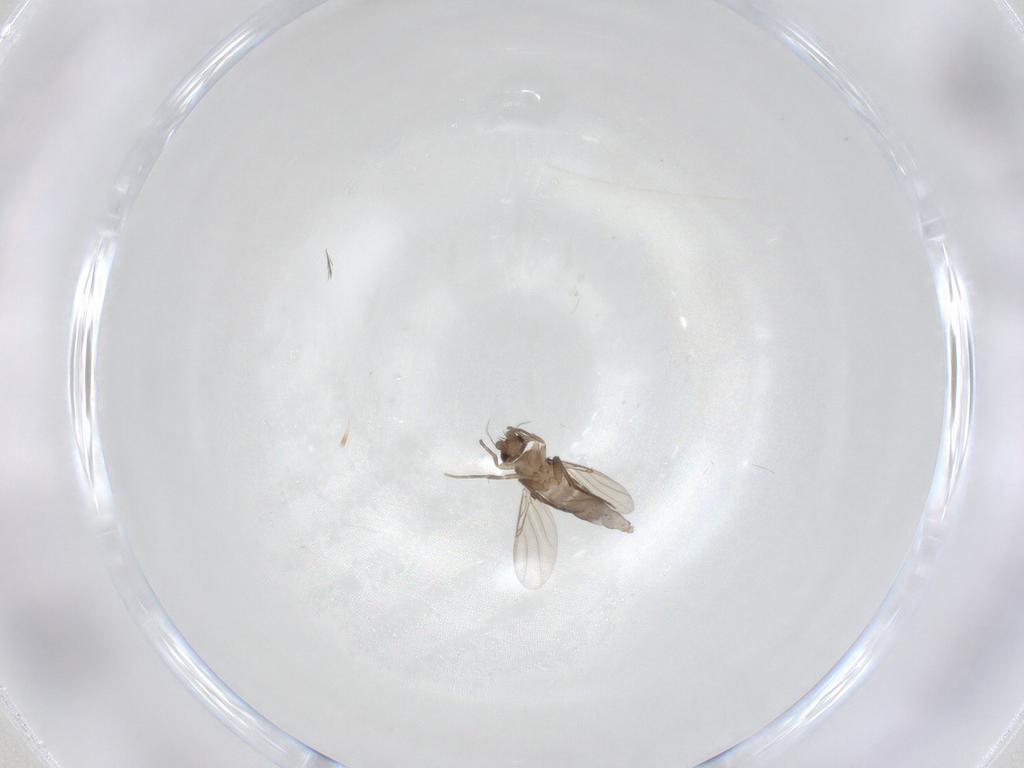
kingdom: Animalia
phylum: Arthropoda
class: Insecta
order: Diptera
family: Phoridae
